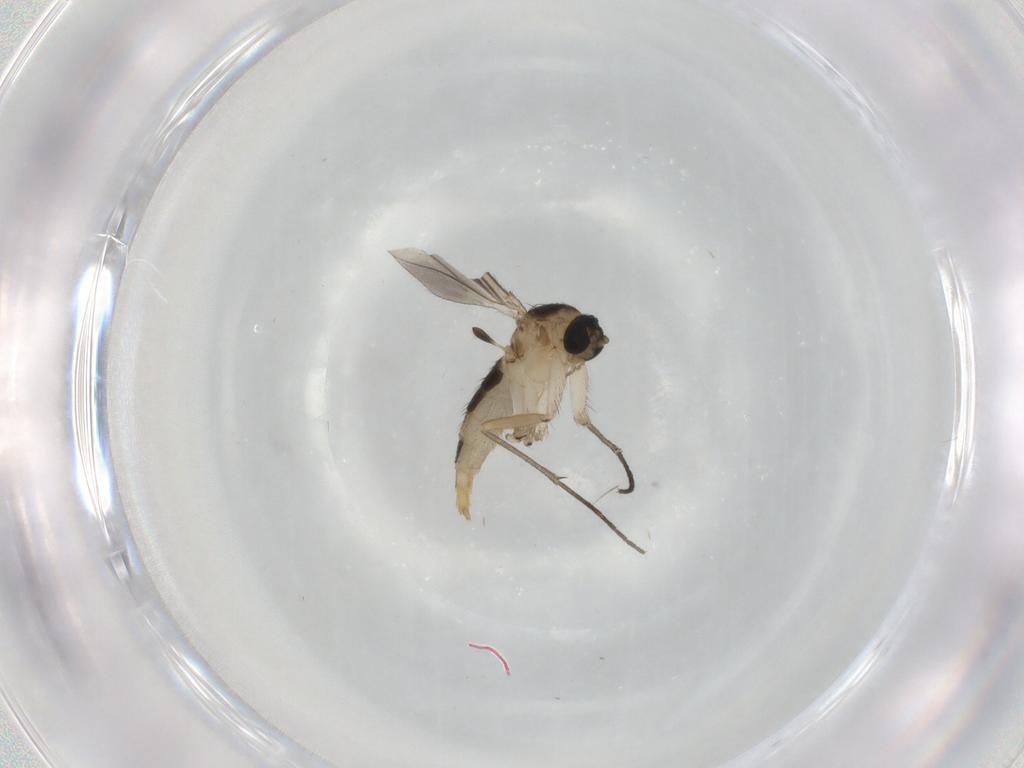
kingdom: Animalia
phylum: Arthropoda
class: Insecta
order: Diptera
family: Sciaridae
